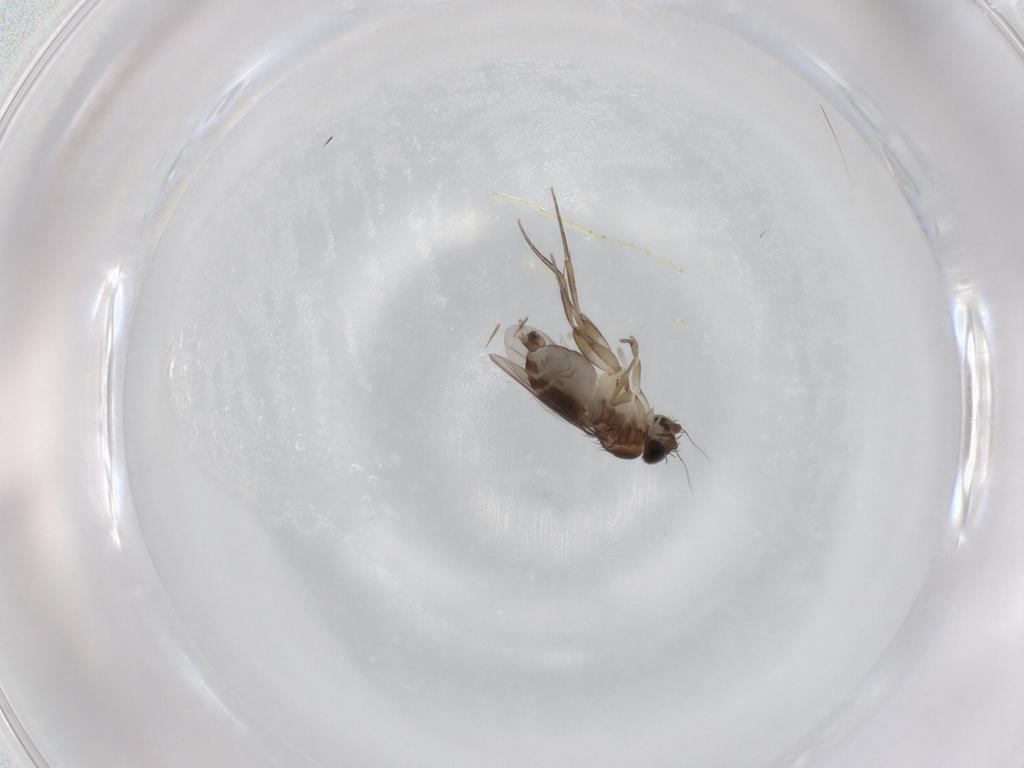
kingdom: Animalia
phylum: Arthropoda
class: Insecta
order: Diptera
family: Phoridae
